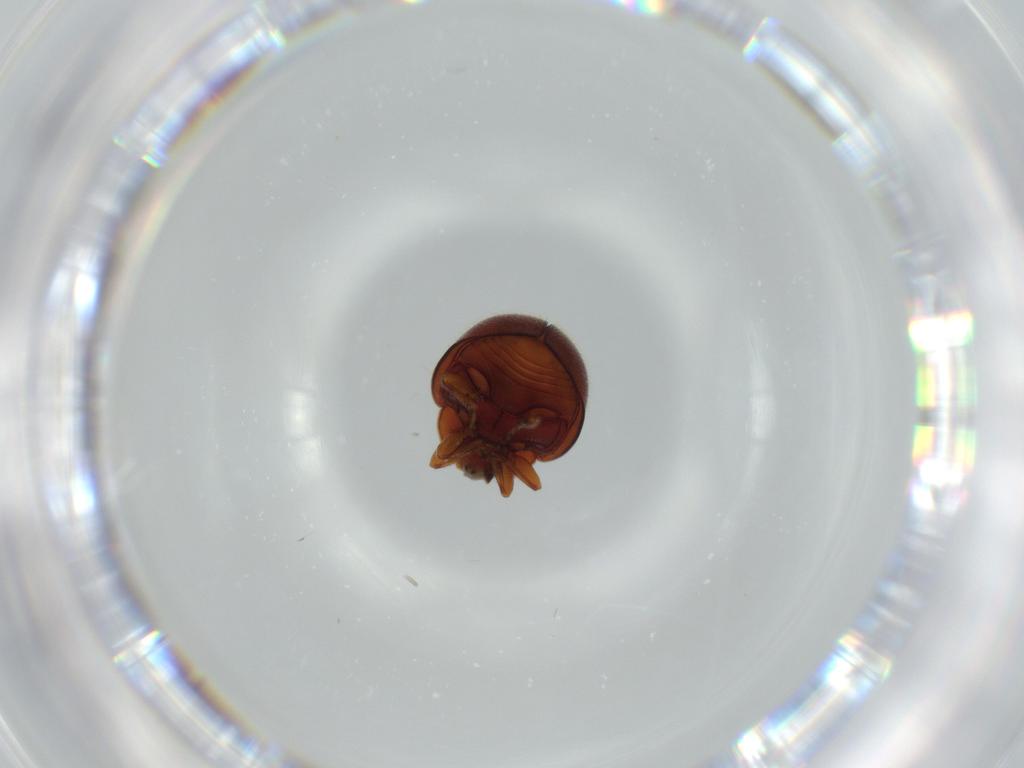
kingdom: Animalia
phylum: Arthropoda
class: Insecta
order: Coleoptera
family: Coccinellidae
